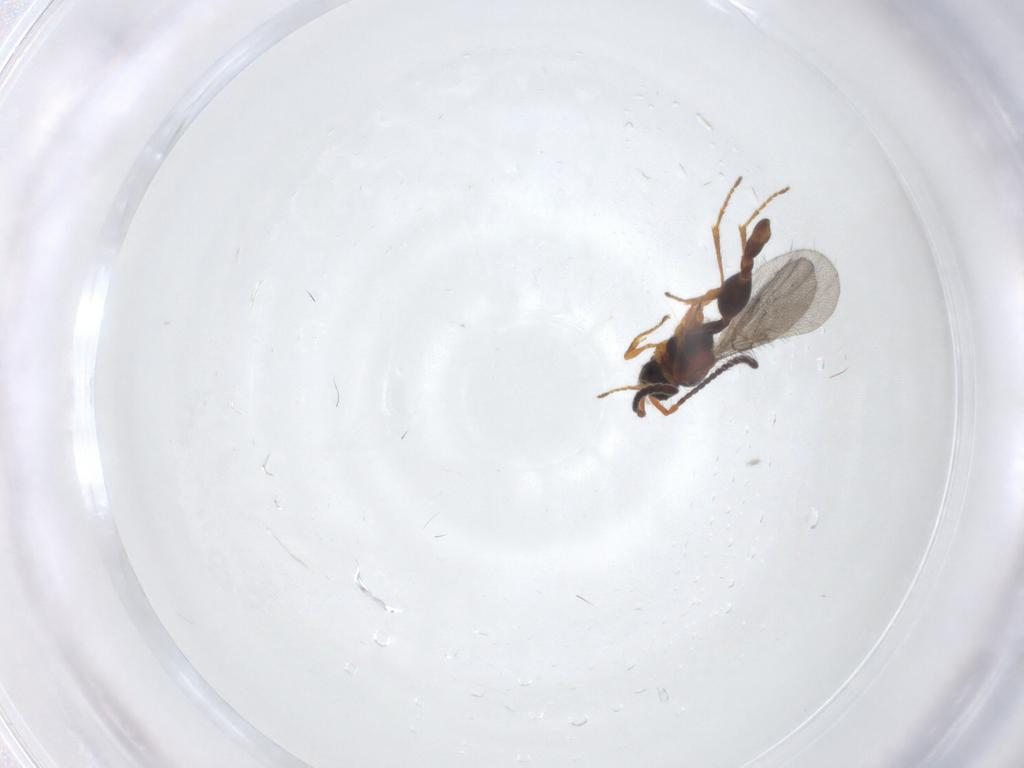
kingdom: Animalia
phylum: Arthropoda
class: Insecta
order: Hymenoptera
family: Diapriidae
